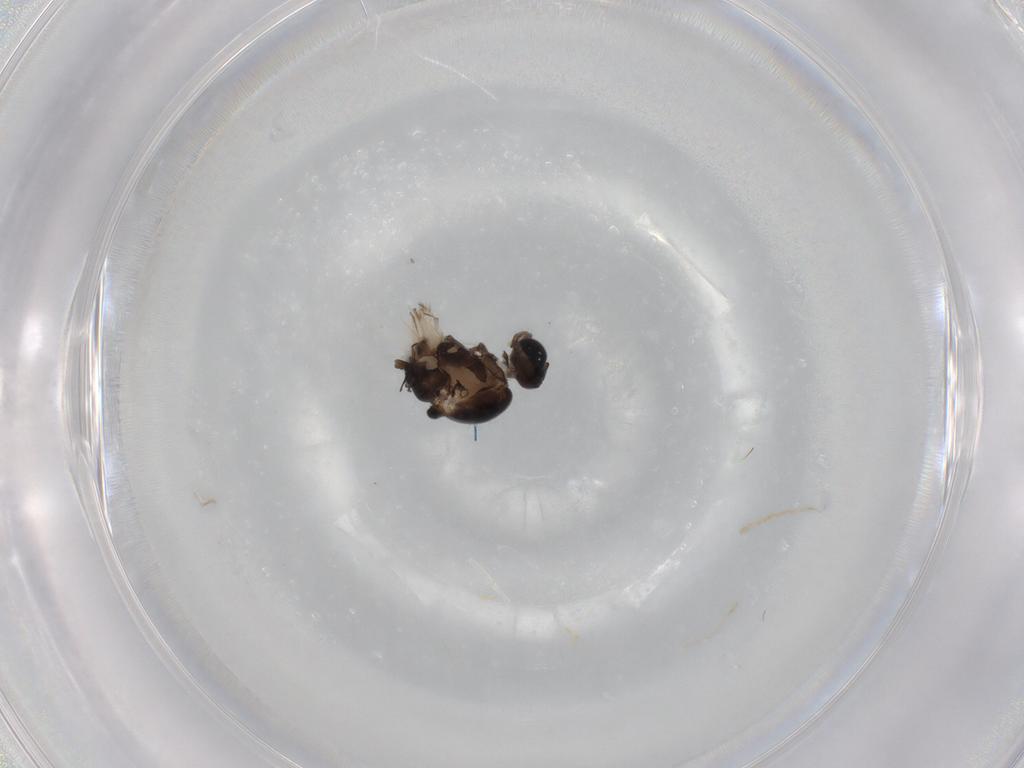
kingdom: Animalia
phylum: Arthropoda
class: Insecta
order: Diptera
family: Sciaridae
